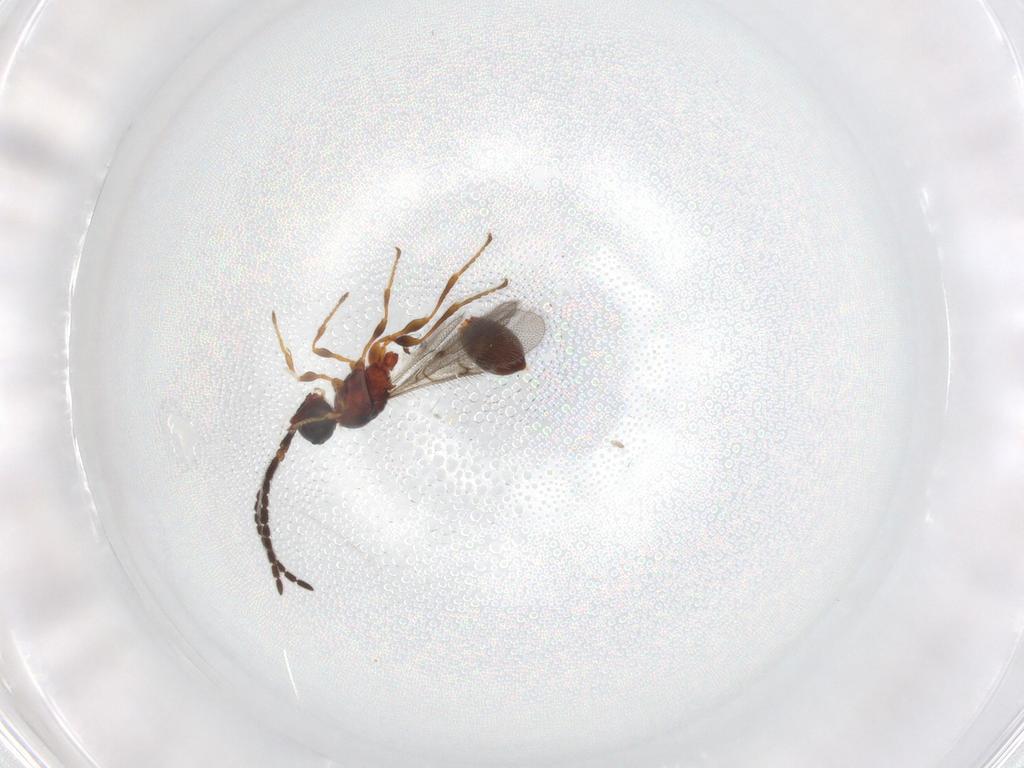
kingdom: Animalia
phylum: Arthropoda
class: Insecta
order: Hymenoptera
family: Diapriidae
